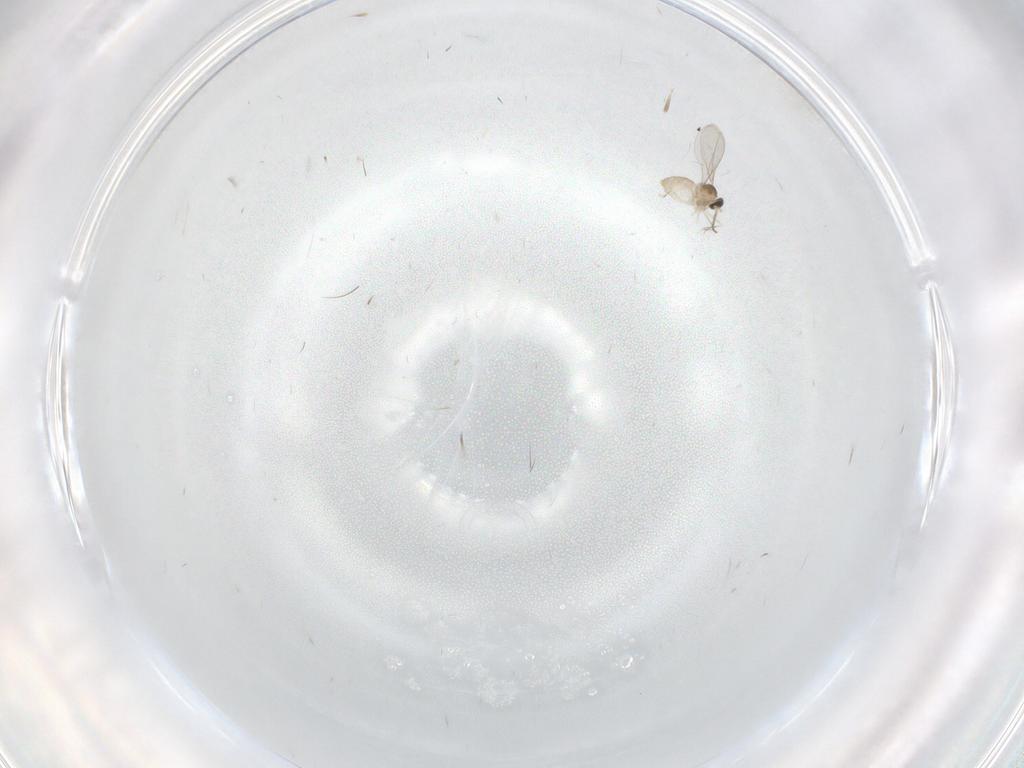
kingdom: Animalia
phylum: Arthropoda
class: Insecta
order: Diptera
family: Cecidomyiidae
